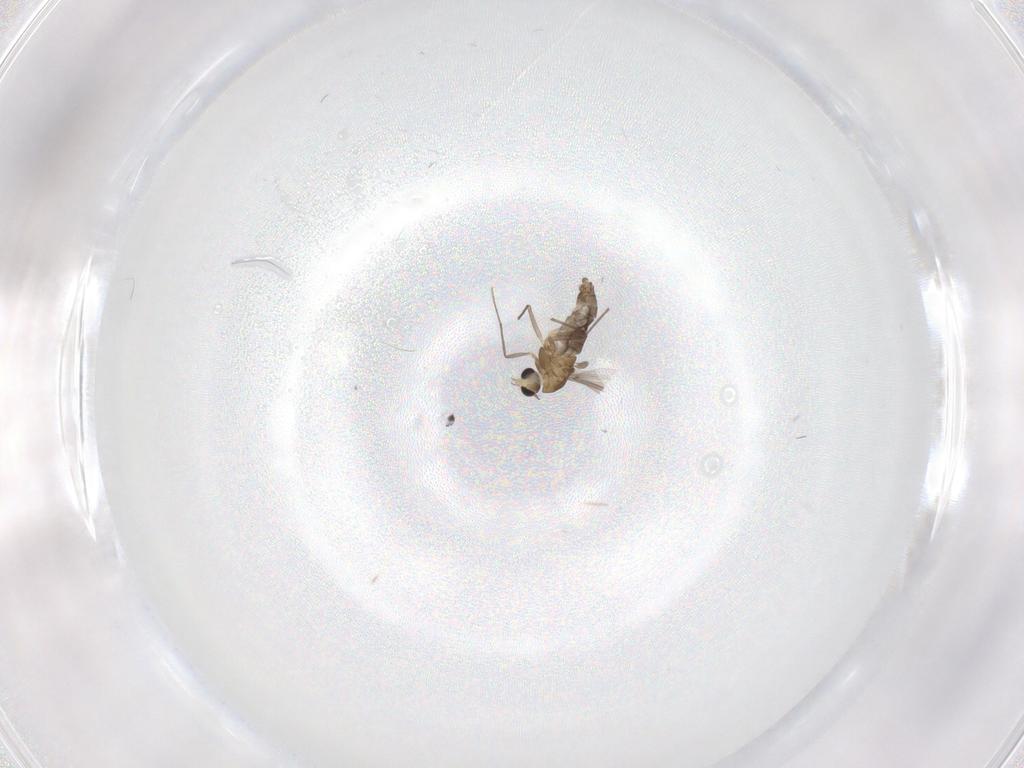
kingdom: Animalia
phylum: Arthropoda
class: Insecta
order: Diptera
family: Chironomidae
